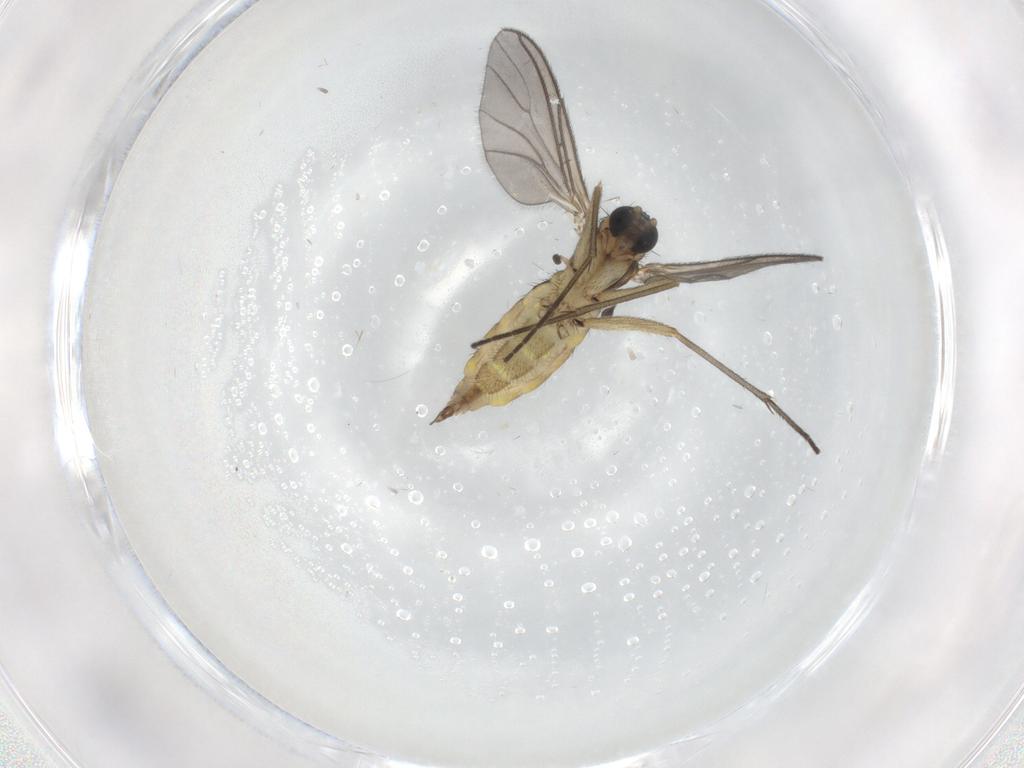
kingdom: Animalia
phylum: Arthropoda
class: Insecta
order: Diptera
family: Sciaridae
